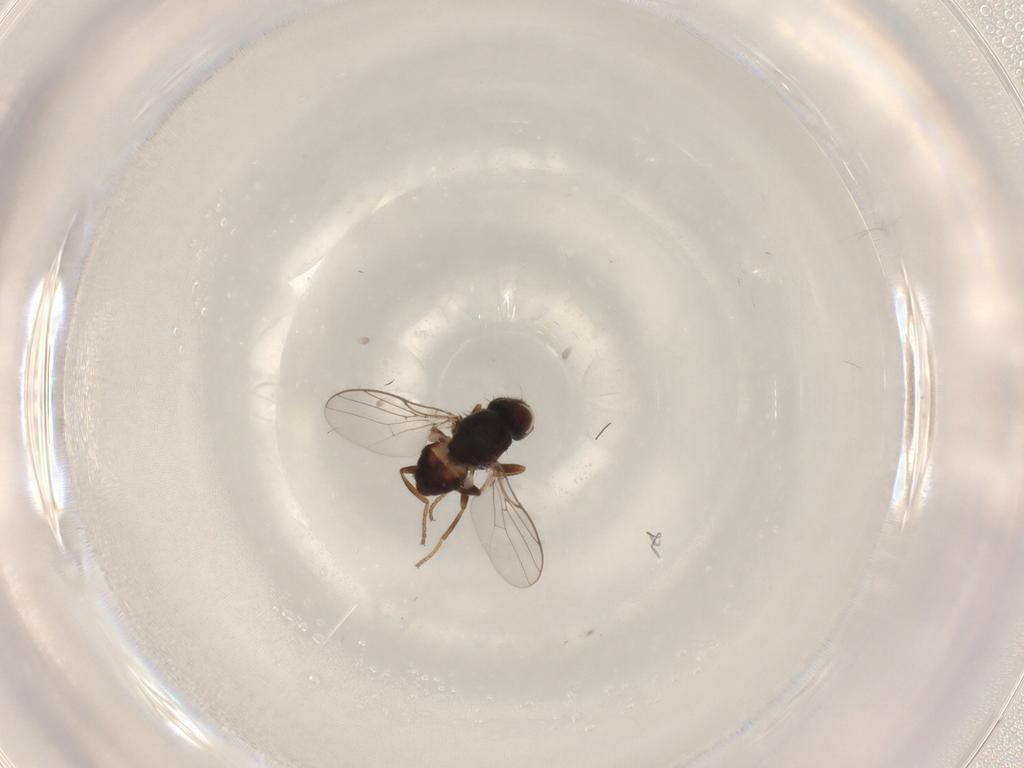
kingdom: Animalia
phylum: Arthropoda
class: Insecta
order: Diptera
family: Chloropidae
